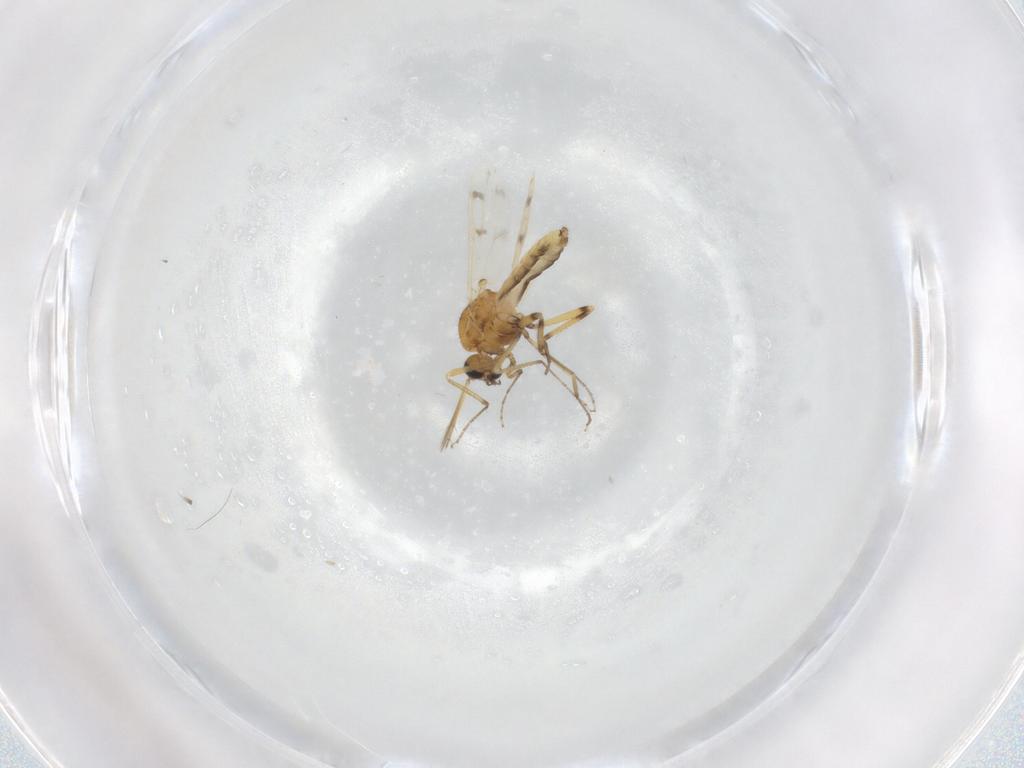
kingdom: Animalia
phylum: Arthropoda
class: Insecta
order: Diptera
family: Ceratopogonidae
